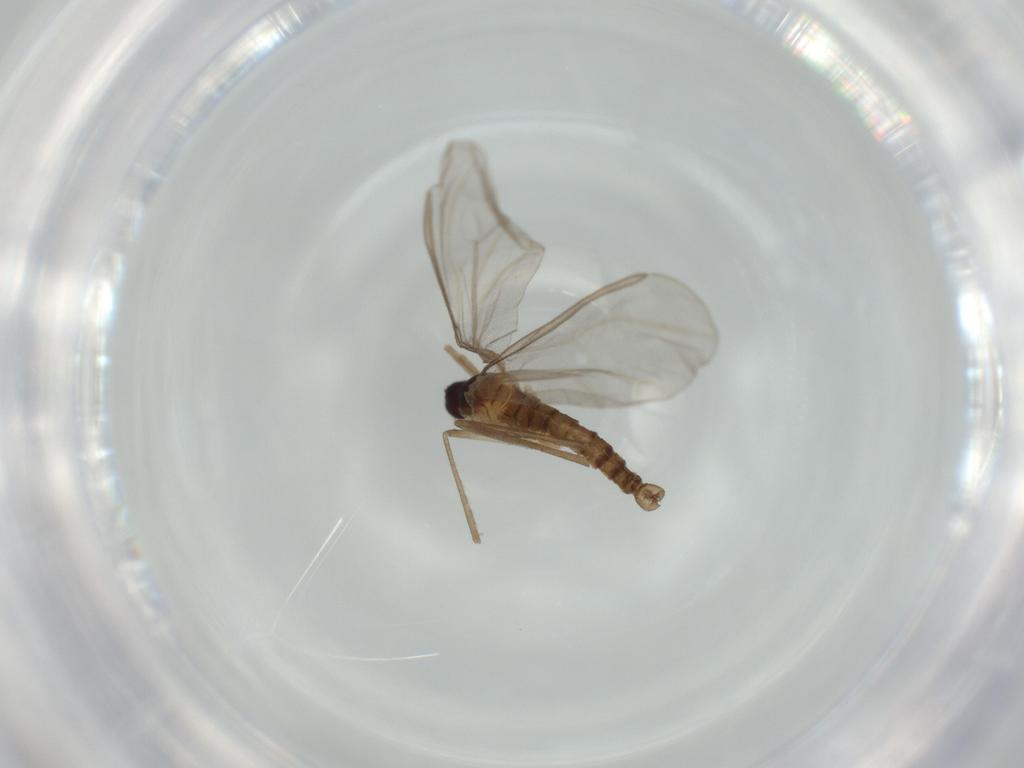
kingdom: Animalia
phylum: Arthropoda
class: Insecta
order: Diptera
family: Cecidomyiidae
